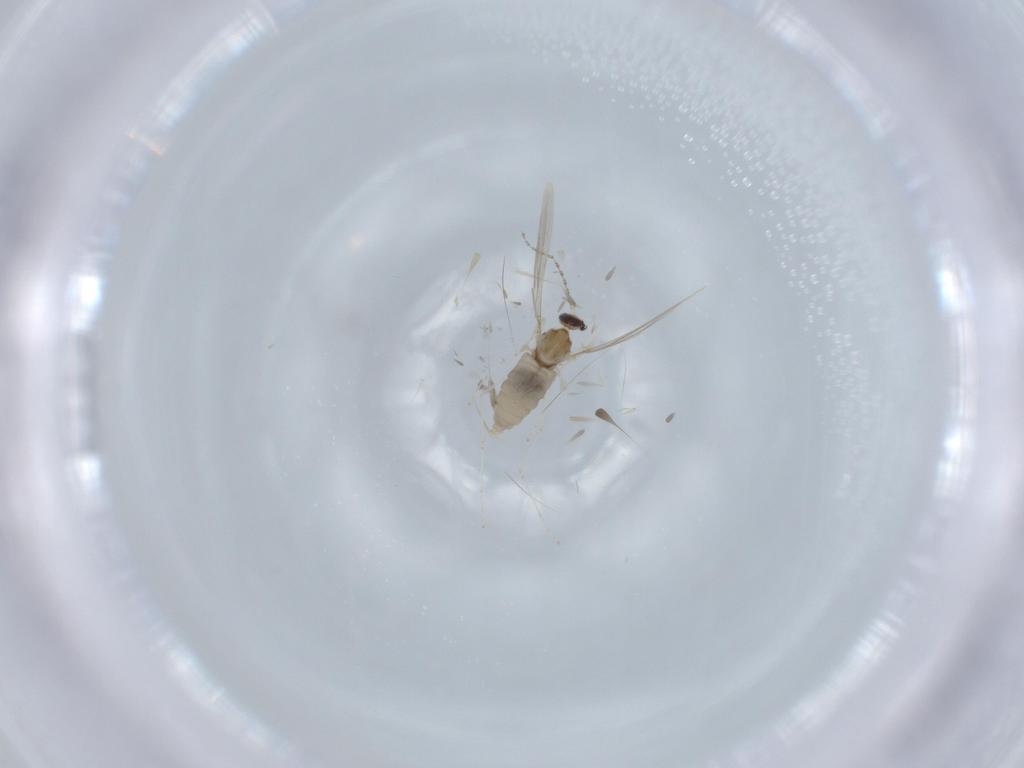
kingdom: Animalia
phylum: Arthropoda
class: Insecta
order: Diptera
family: Cecidomyiidae
